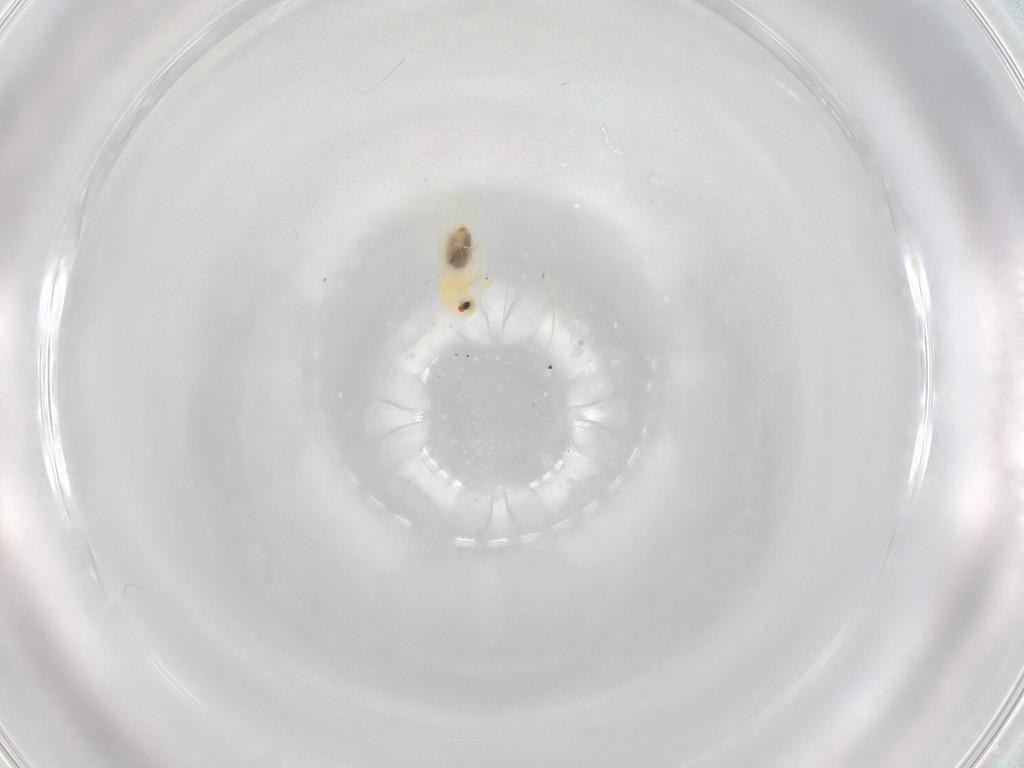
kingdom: Animalia
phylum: Arthropoda
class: Insecta
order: Hemiptera
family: Aleyrodidae
